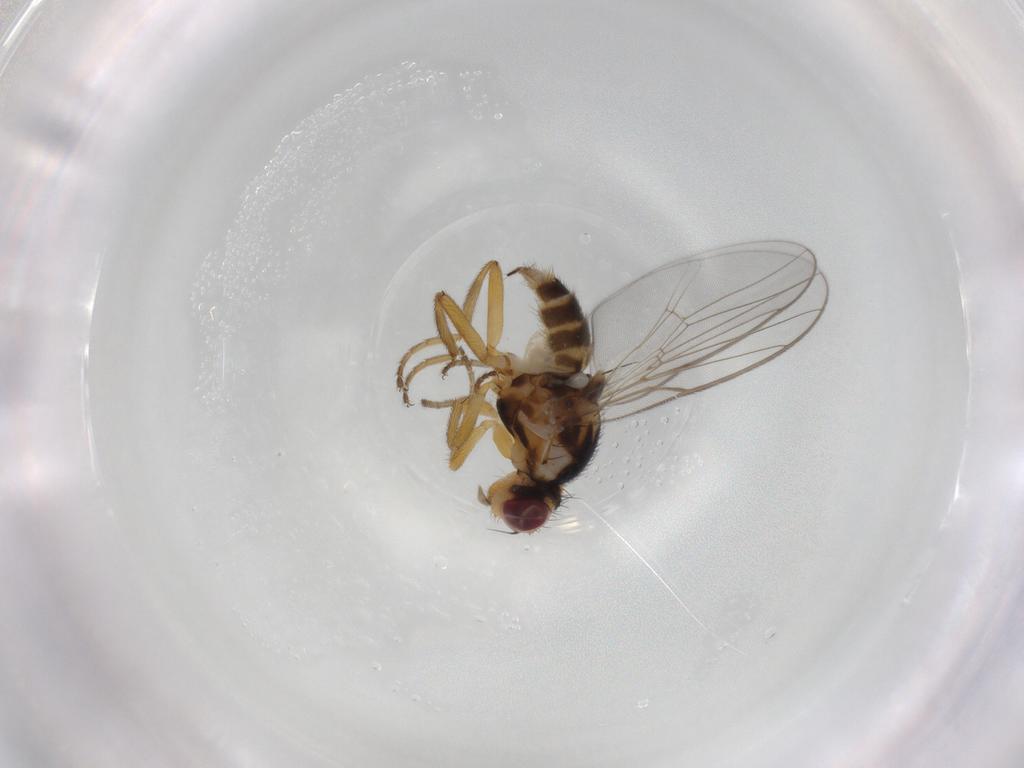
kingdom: Animalia
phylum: Arthropoda
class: Insecta
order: Diptera
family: Chloropidae
